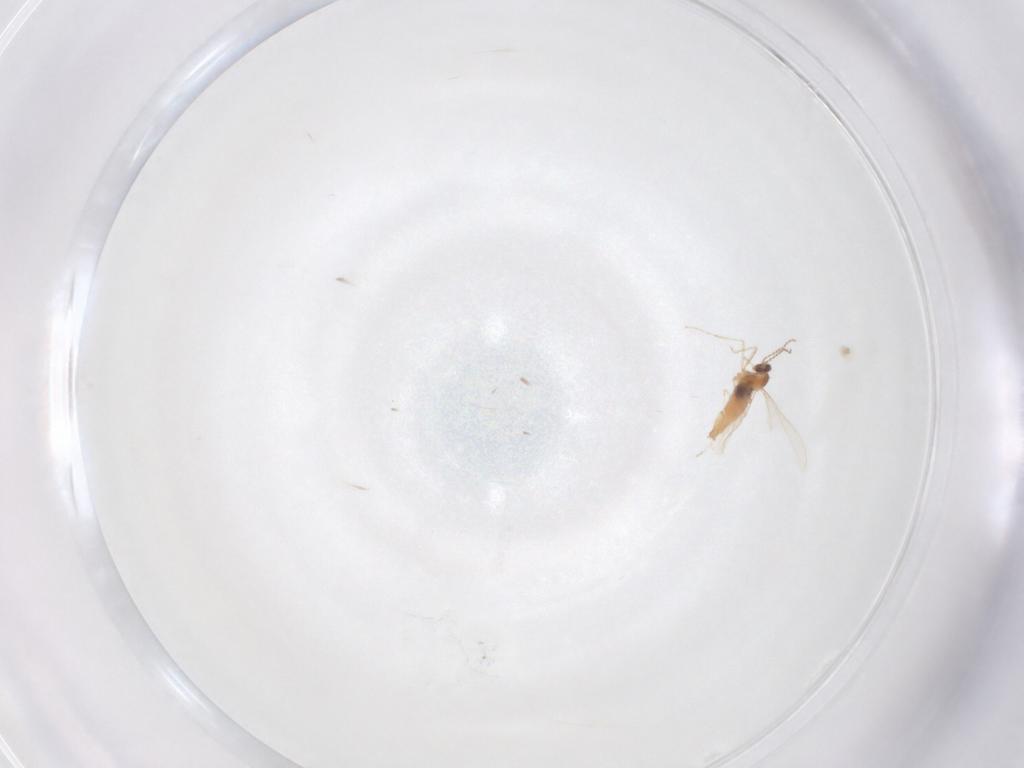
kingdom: Animalia
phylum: Arthropoda
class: Insecta
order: Diptera
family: Cecidomyiidae
